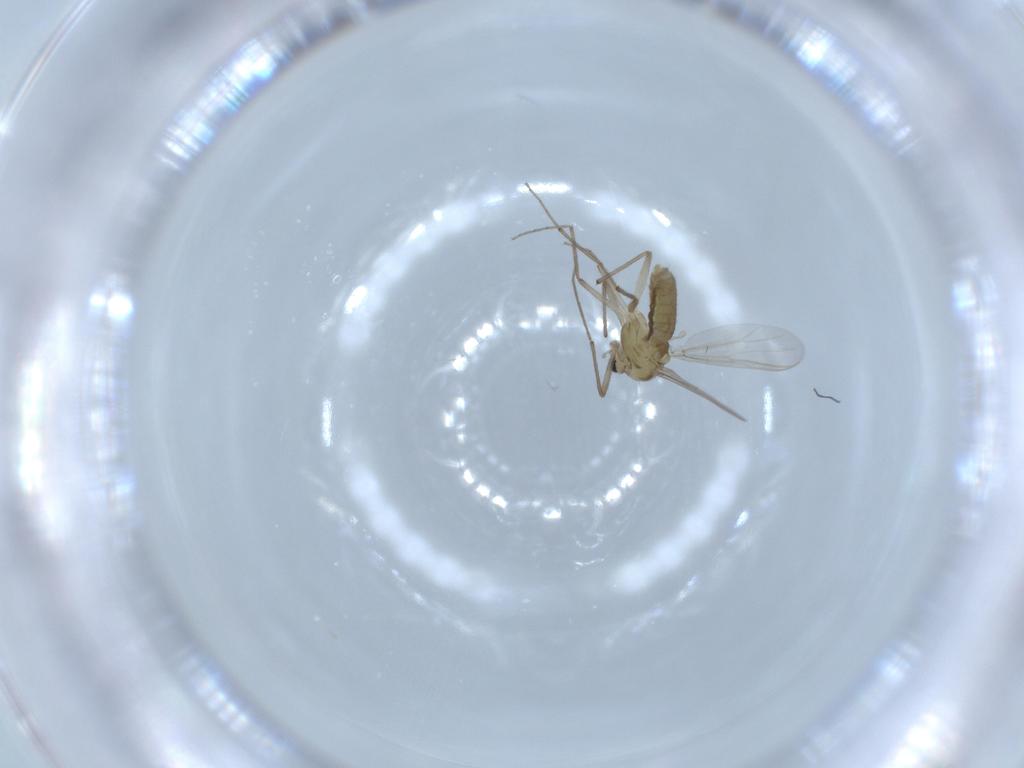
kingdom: Animalia
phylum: Arthropoda
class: Insecta
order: Diptera
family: Chironomidae
